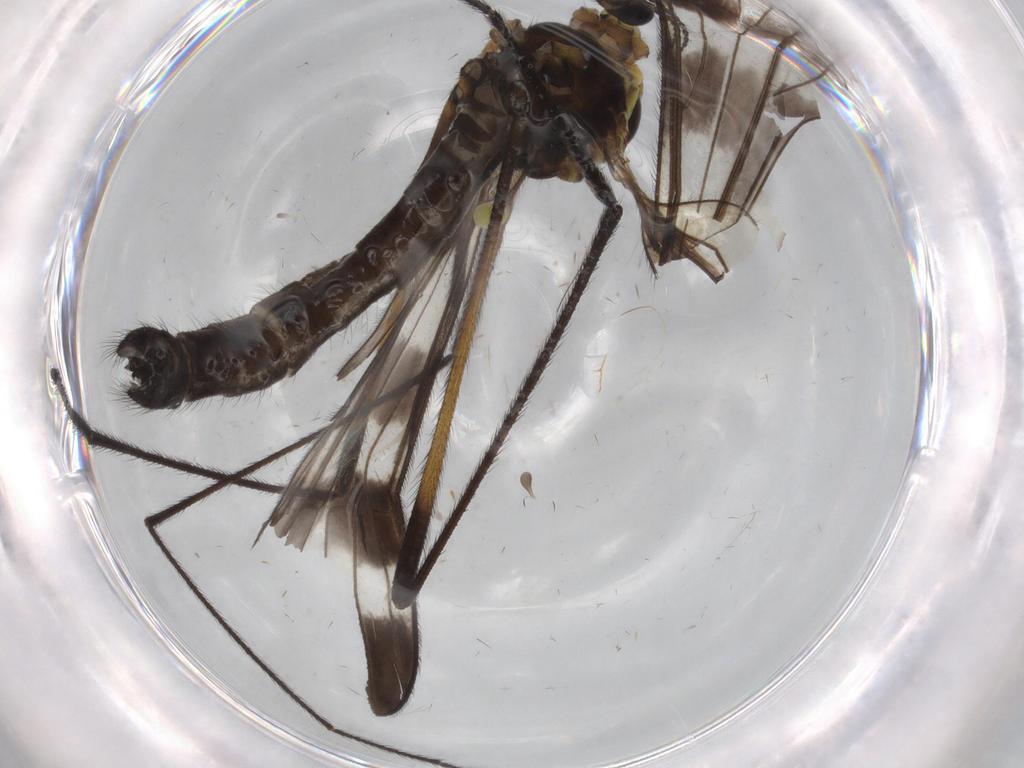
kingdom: Animalia
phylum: Arthropoda
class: Insecta
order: Diptera
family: Limoniidae
